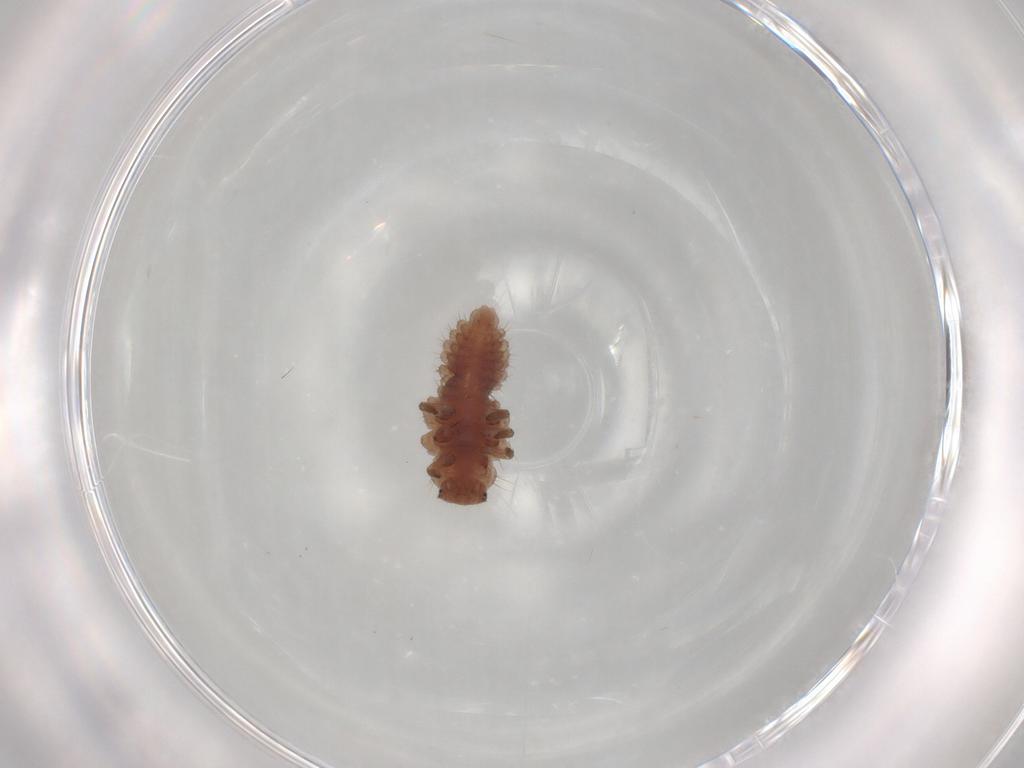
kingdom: Animalia
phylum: Arthropoda
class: Insecta
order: Coleoptera
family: Coccinellidae
